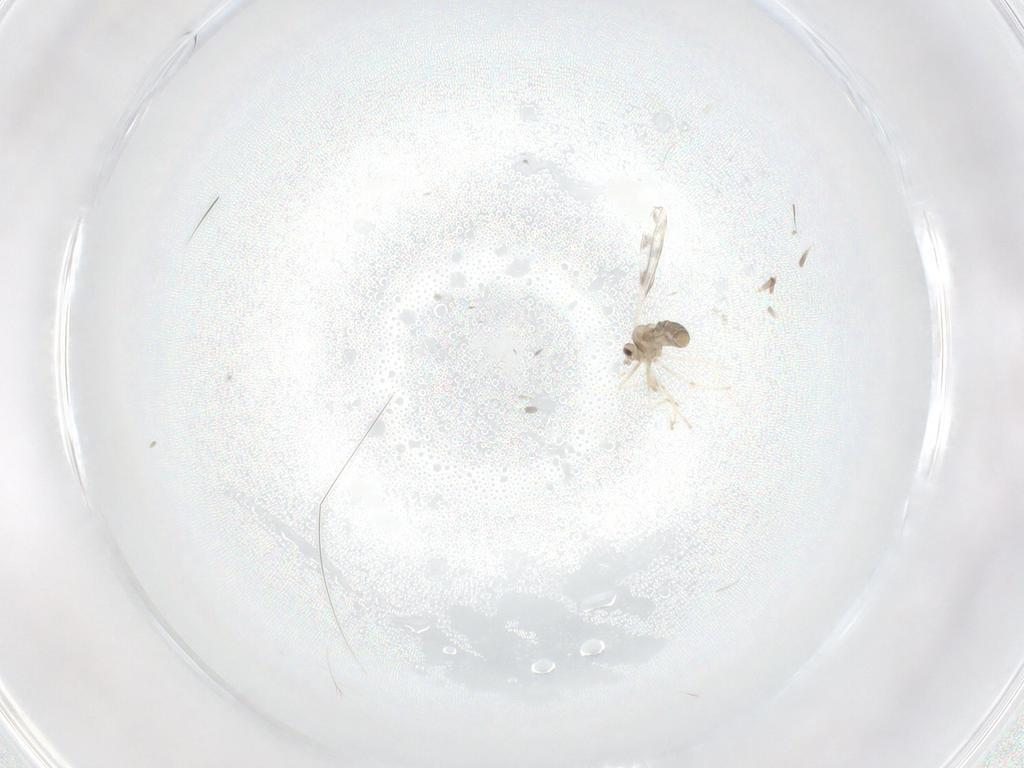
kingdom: Animalia
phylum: Arthropoda
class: Insecta
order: Diptera
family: Cecidomyiidae
